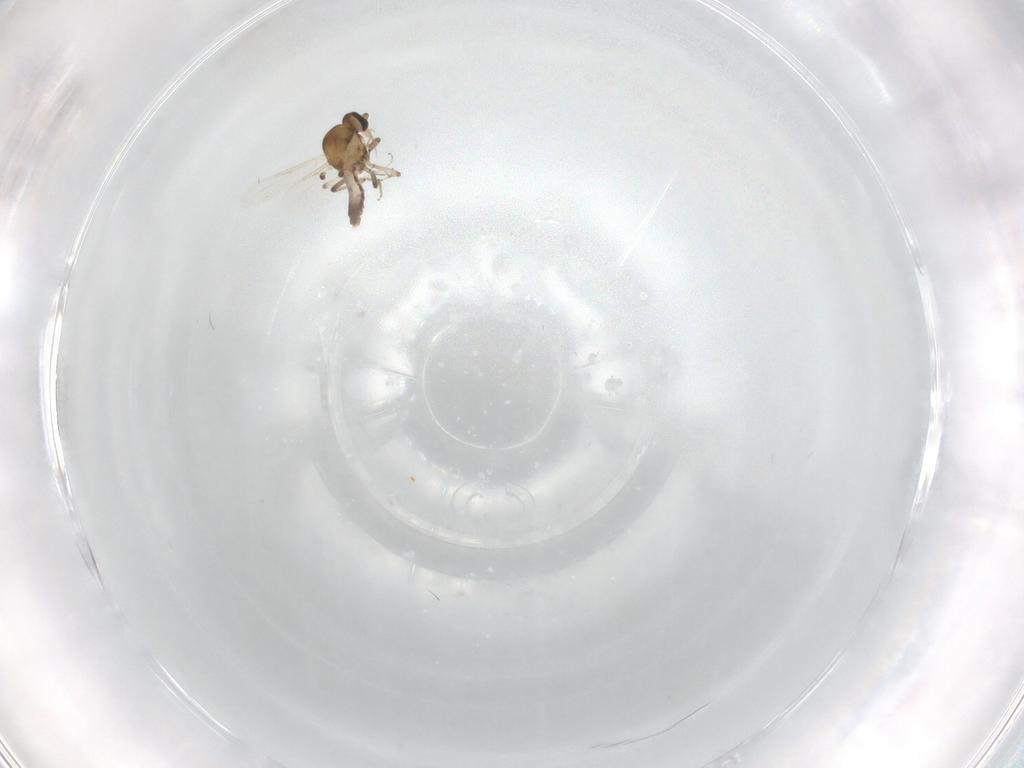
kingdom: Animalia
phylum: Arthropoda
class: Insecta
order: Diptera
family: Ceratopogonidae
